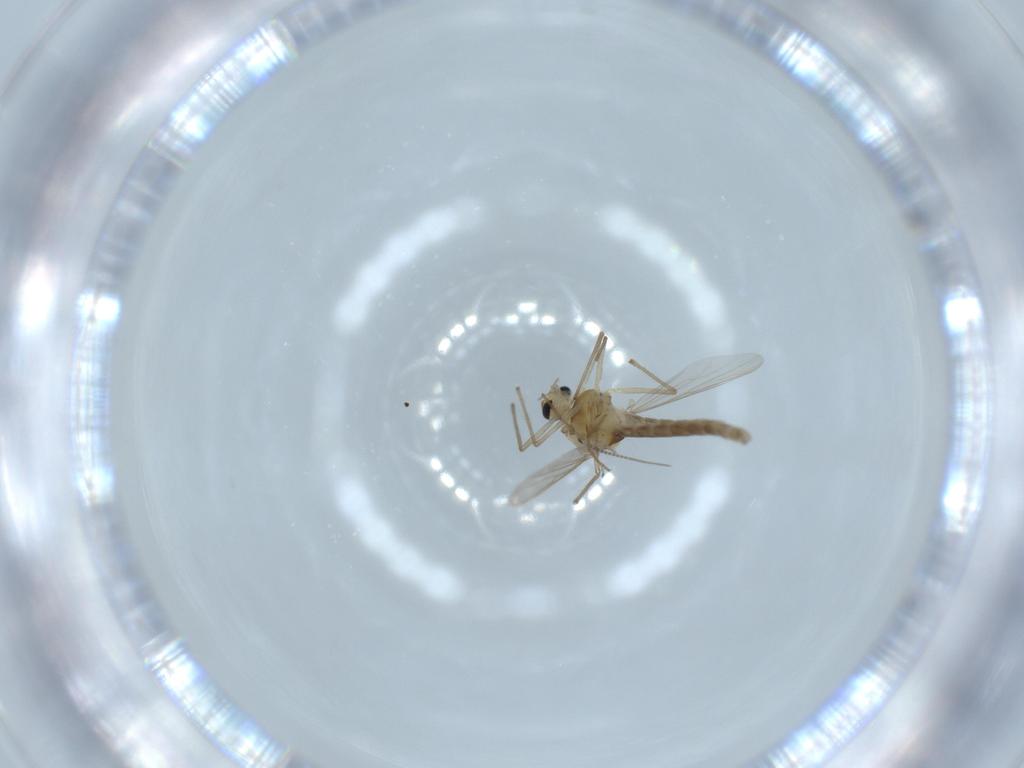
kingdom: Animalia
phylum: Arthropoda
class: Insecta
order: Diptera
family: Chironomidae
